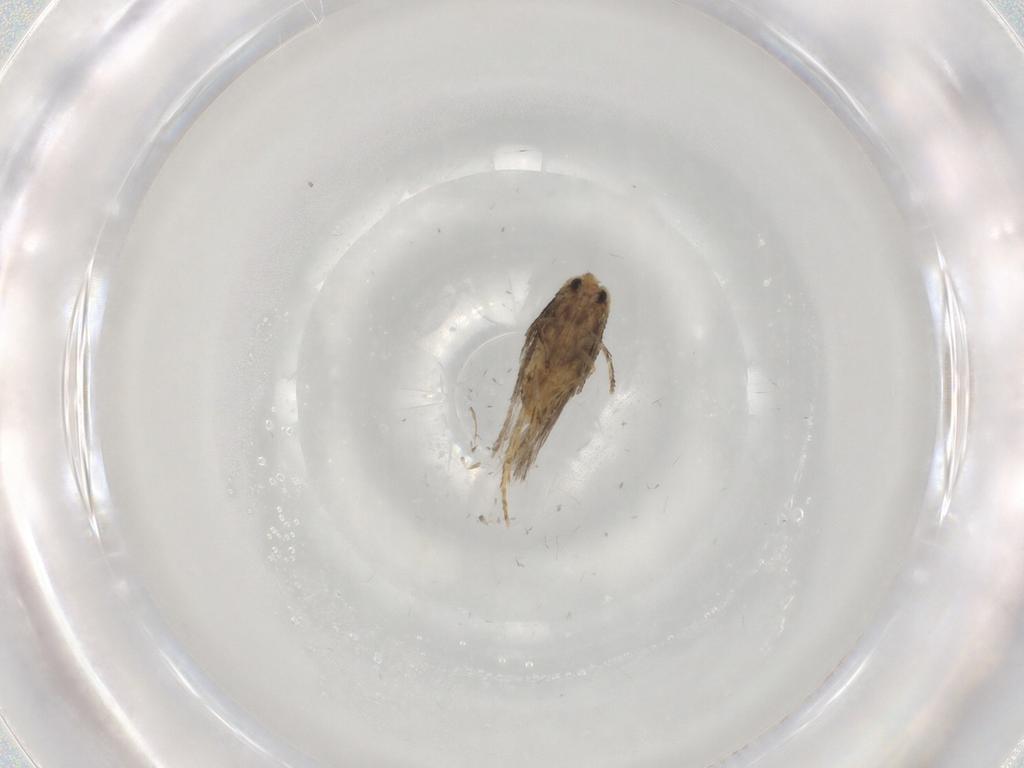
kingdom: Animalia
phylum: Arthropoda
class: Insecta
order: Lepidoptera
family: Nepticulidae
